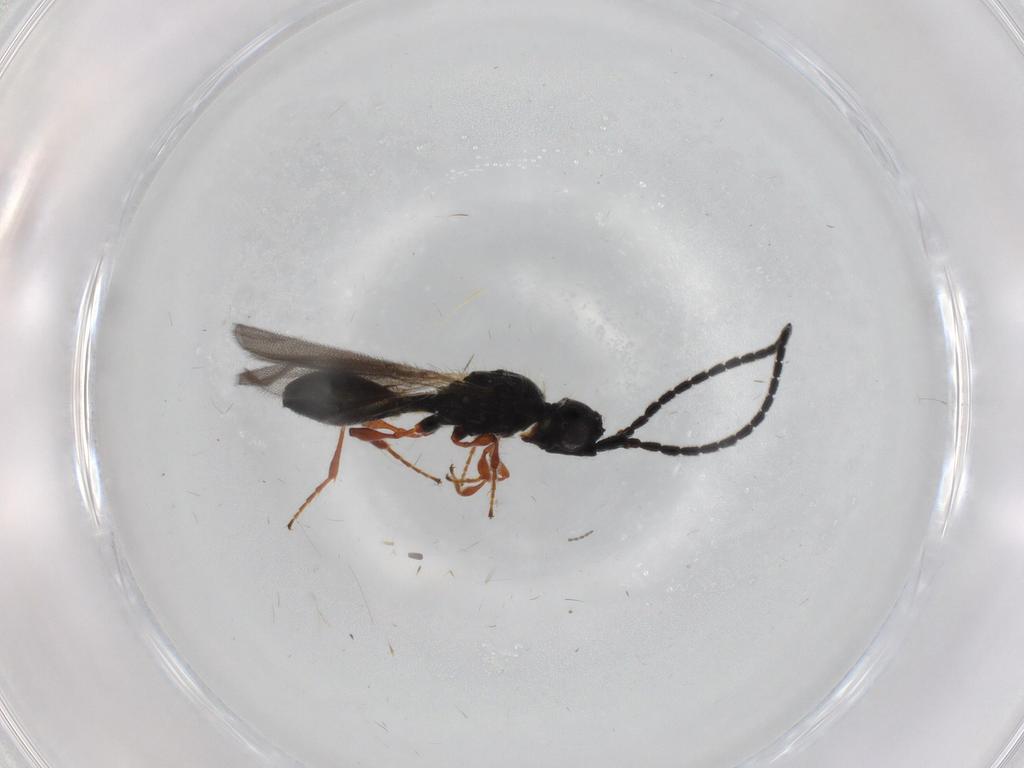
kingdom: Animalia
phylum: Arthropoda
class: Insecta
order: Hymenoptera
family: Diapriidae
